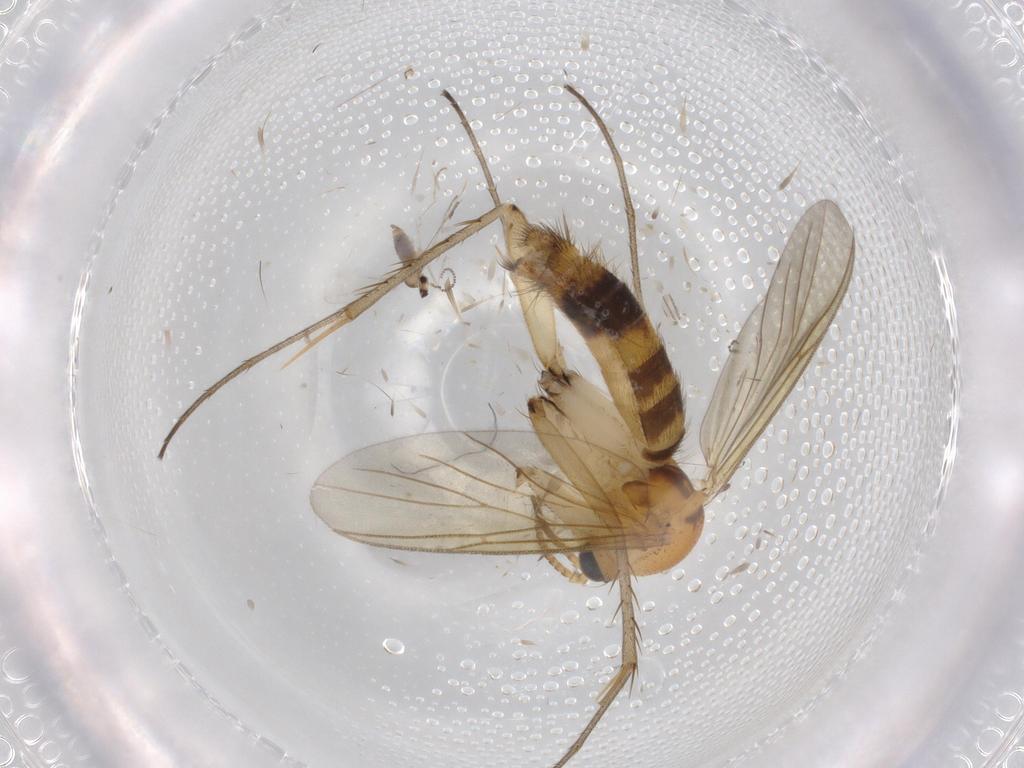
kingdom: Animalia
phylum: Arthropoda
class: Insecta
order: Diptera
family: Cecidomyiidae
